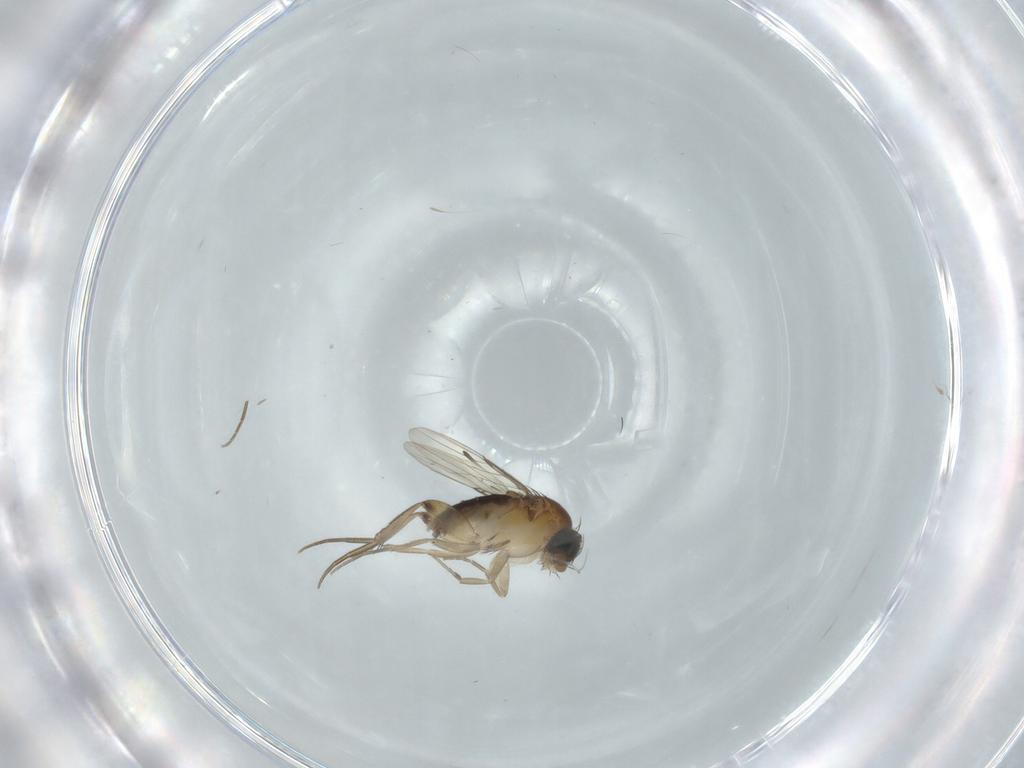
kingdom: Animalia
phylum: Arthropoda
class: Insecta
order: Diptera
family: Phoridae
